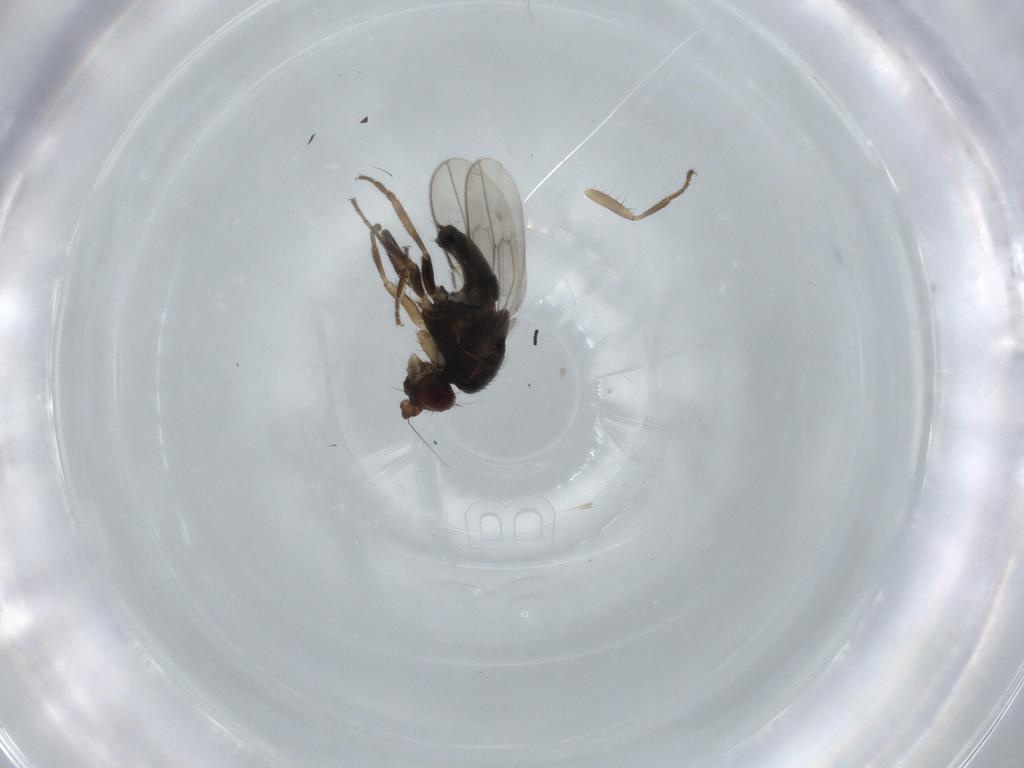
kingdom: Animalia
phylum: Arthropoda
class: Insecta
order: Diptera
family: Sphaeroceridae
